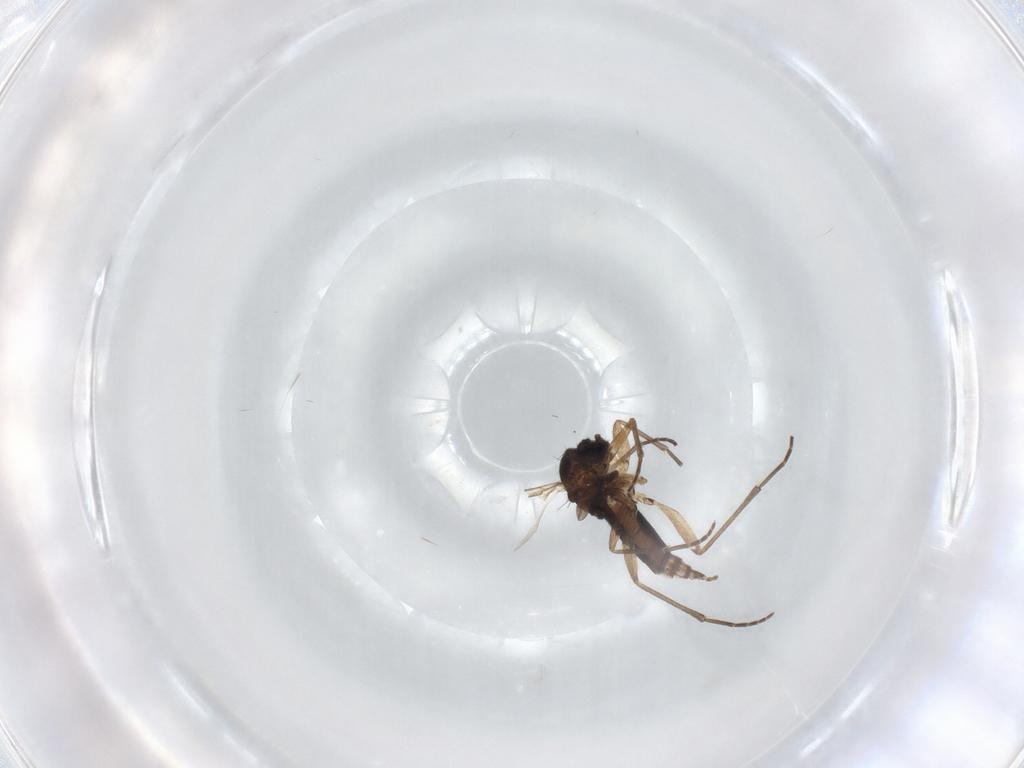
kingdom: Animalia
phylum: Arthropoda
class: Insecta
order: Diptera
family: Chironomidae
